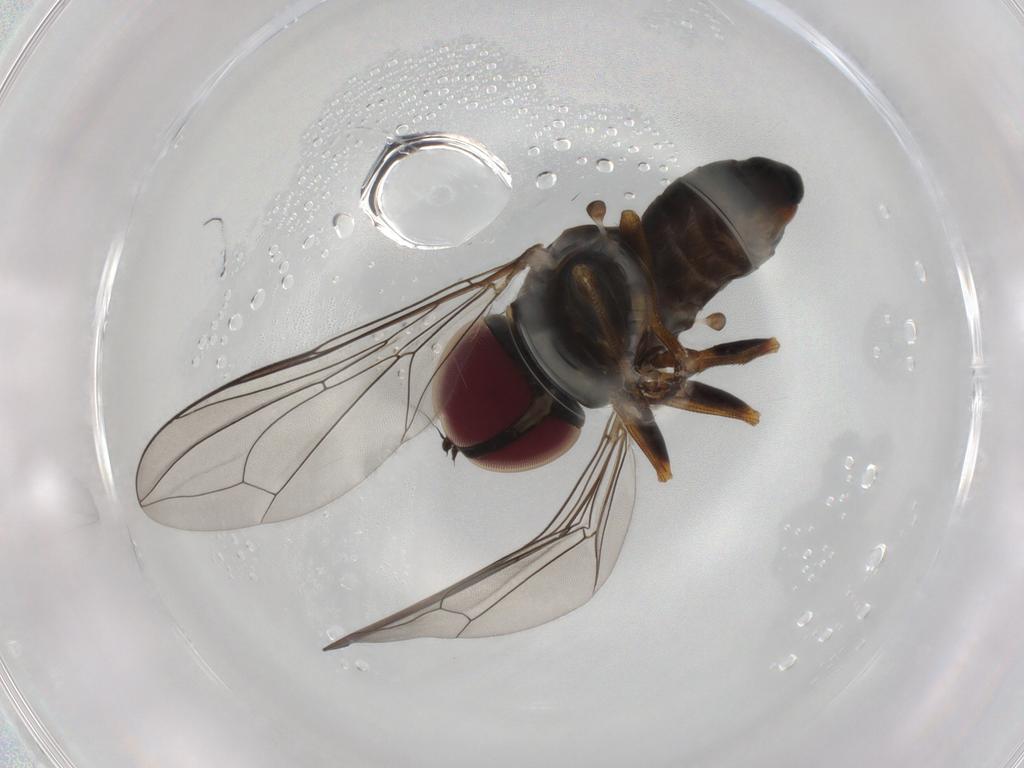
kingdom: Animalia
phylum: Arthropoda
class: Insecta
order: Diptera
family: Pipunculidae
